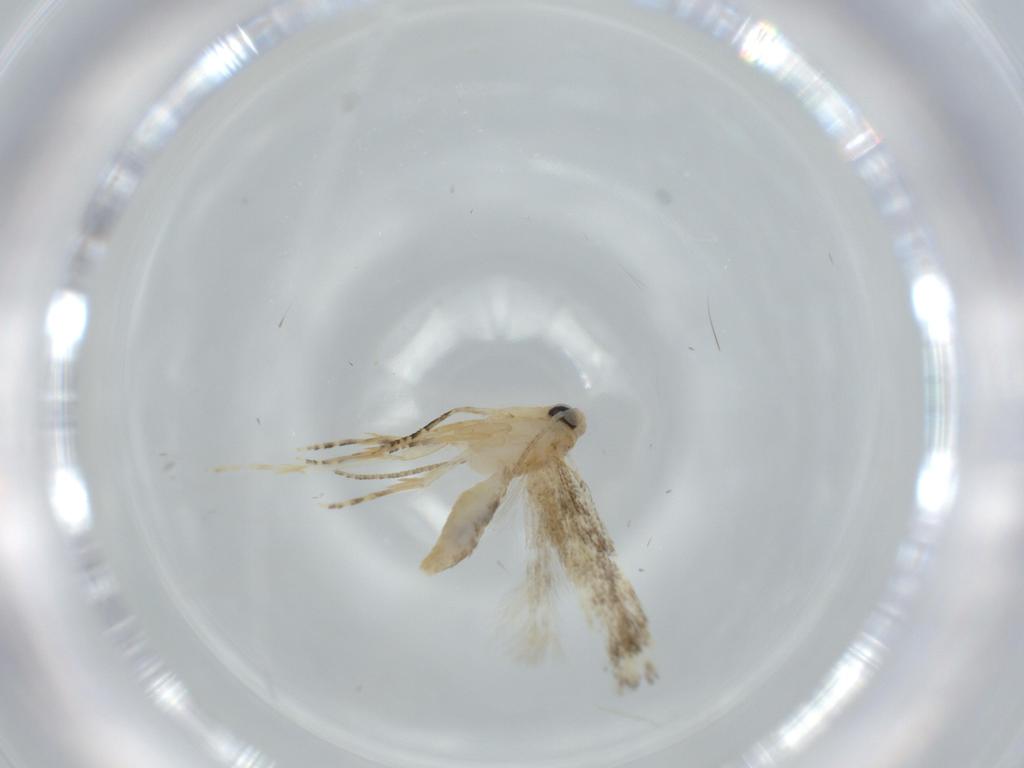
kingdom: Animalia
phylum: Arthropoda
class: Insecta
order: Lepidoptera
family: Bucculatricidae
